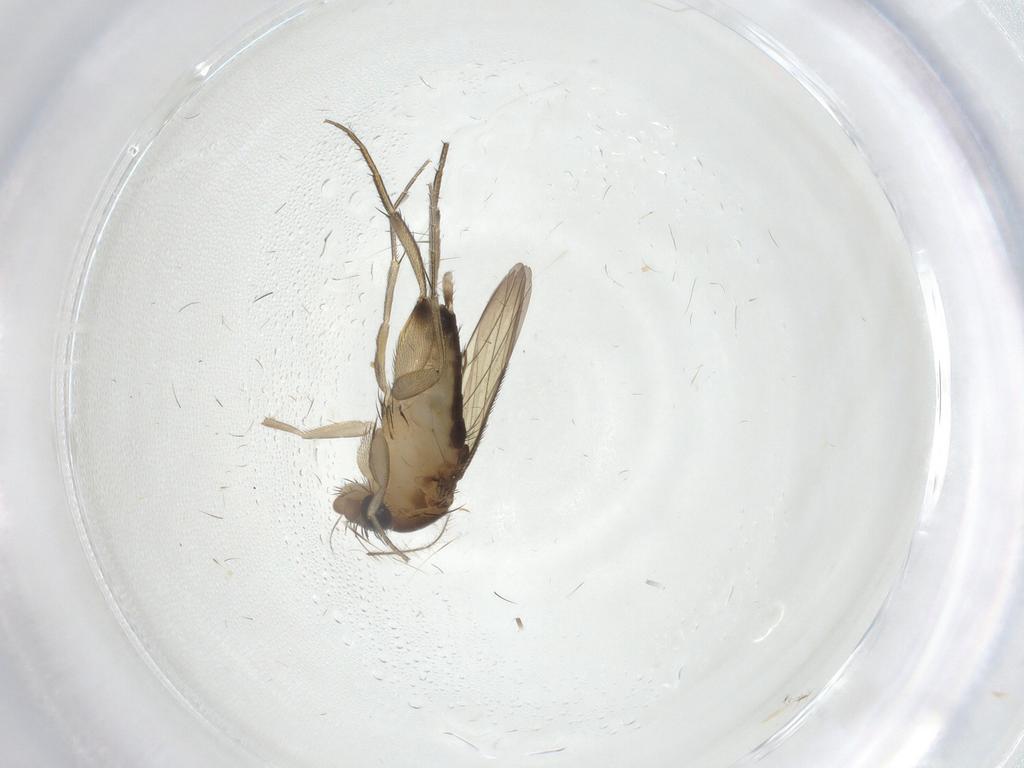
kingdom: Animalia
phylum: Arthropoda
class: Insecta
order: Diptera
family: Phoridae
